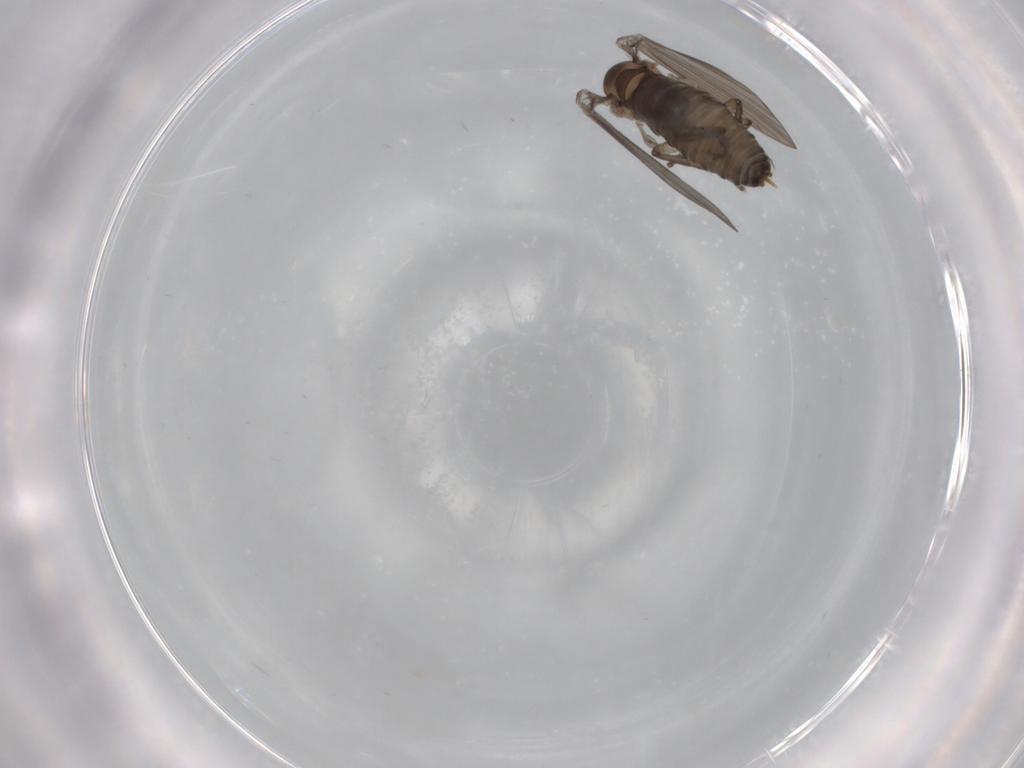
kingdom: Animalia
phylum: Arthropoda
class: Insecta
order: Diptera
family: Psychodidae
